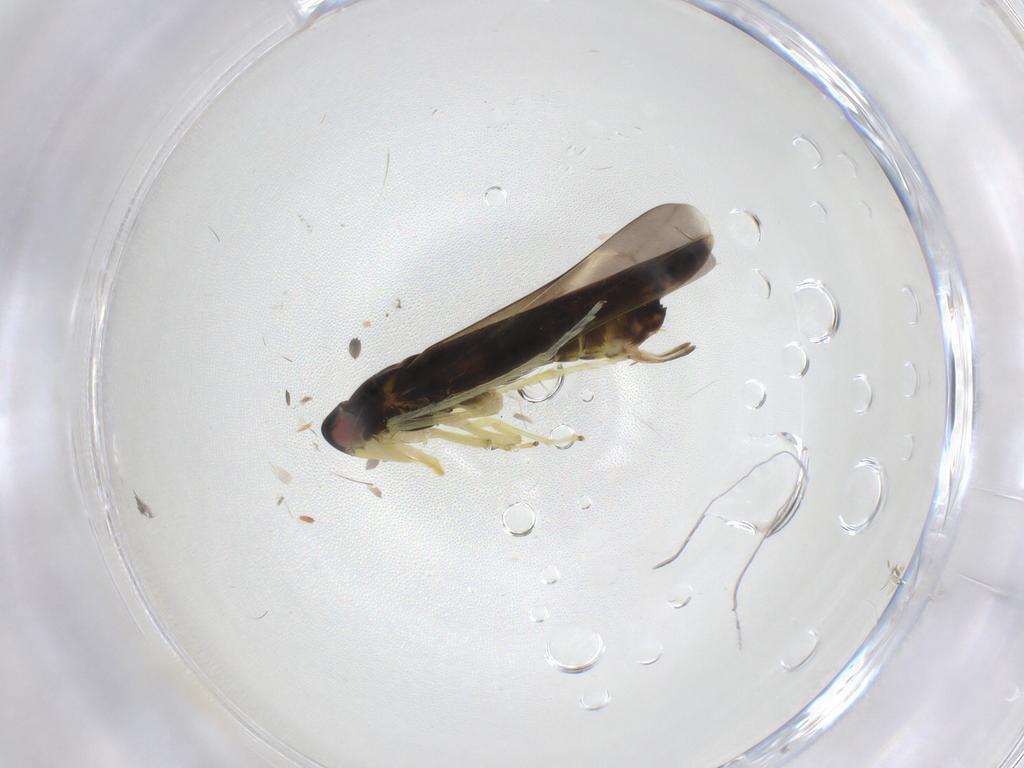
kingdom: Animalia
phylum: Arthropoda
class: Insecta
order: Hemiptera
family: Cicadellidae
